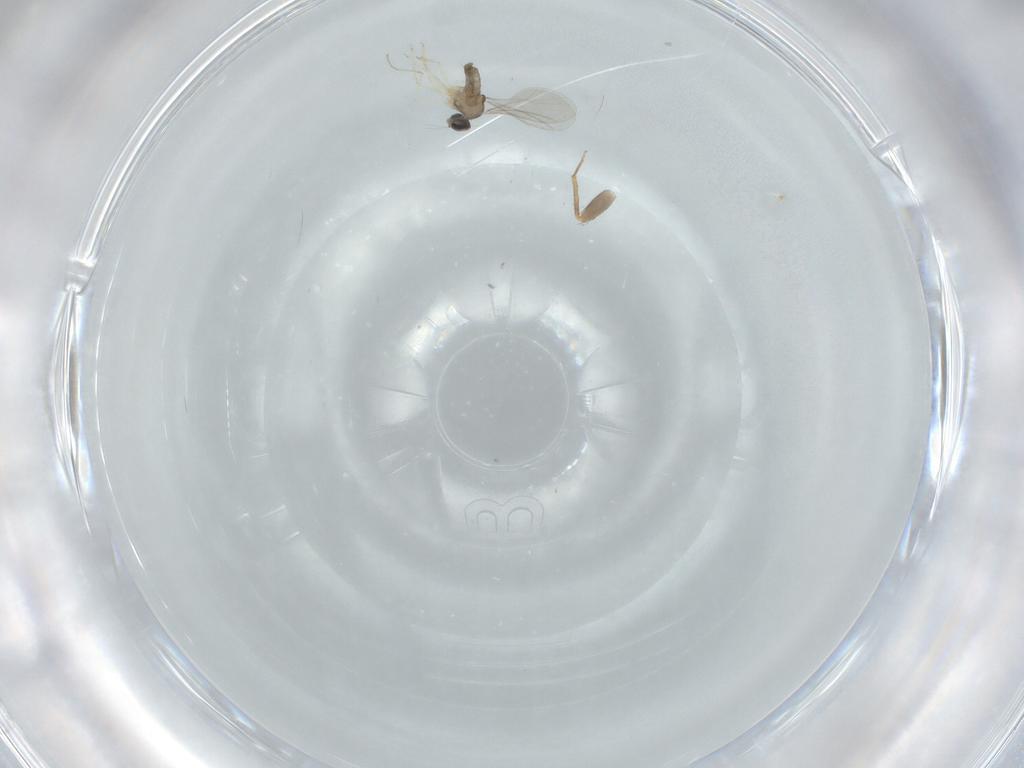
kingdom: Animalia
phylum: Arthropoda
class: Insecta
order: Diptera
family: Cecidomyiidae
